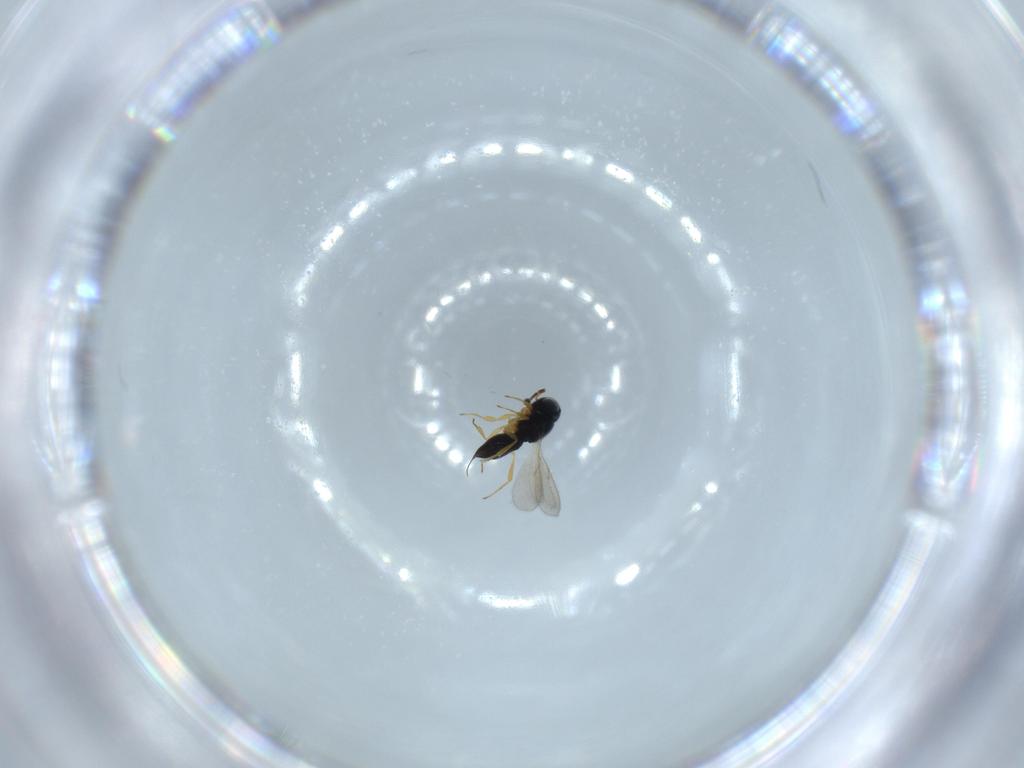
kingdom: Animalia
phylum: Arthropoda
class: Insecta
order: Hymenoptera
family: Scelionidae
